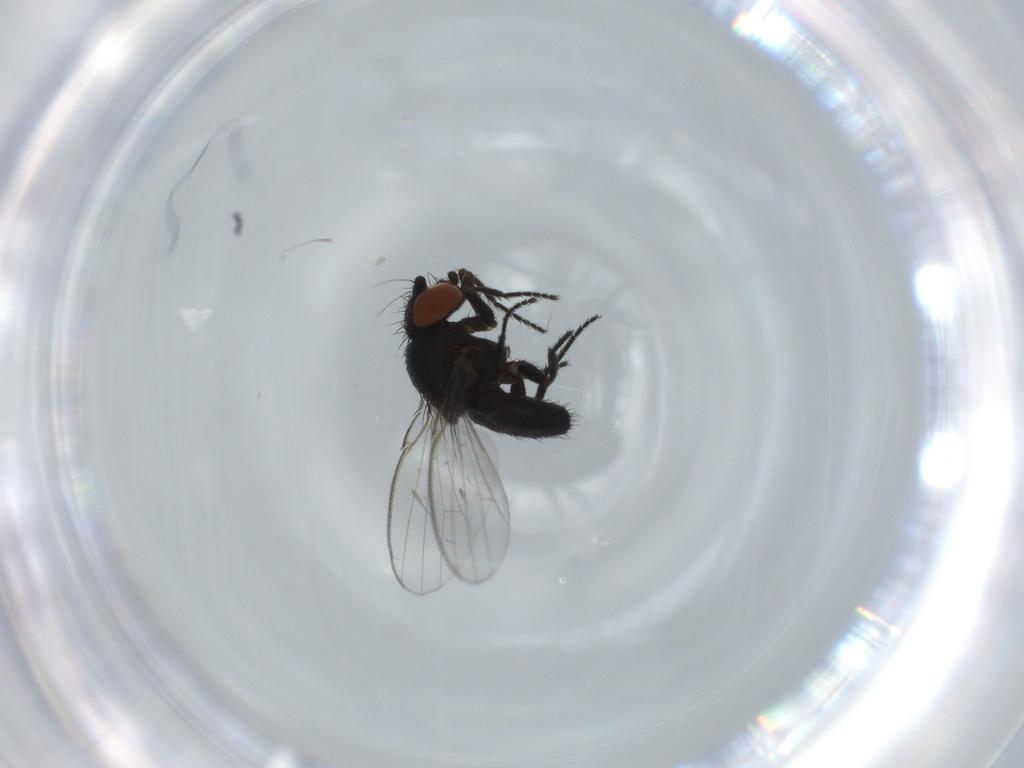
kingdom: Animalia
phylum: Arthropoda
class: Insecta
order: Diptera
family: Milichiidae
